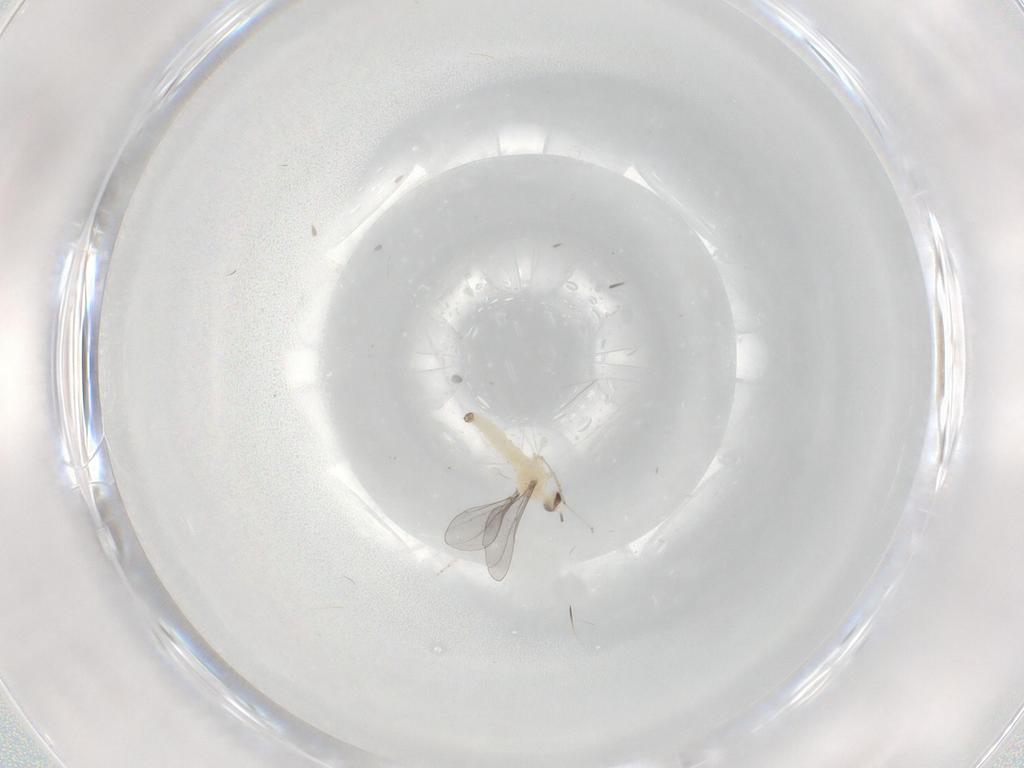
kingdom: Animalia
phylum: Arthropoda
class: Insecta
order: Diptera
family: Cecidomyiidae
